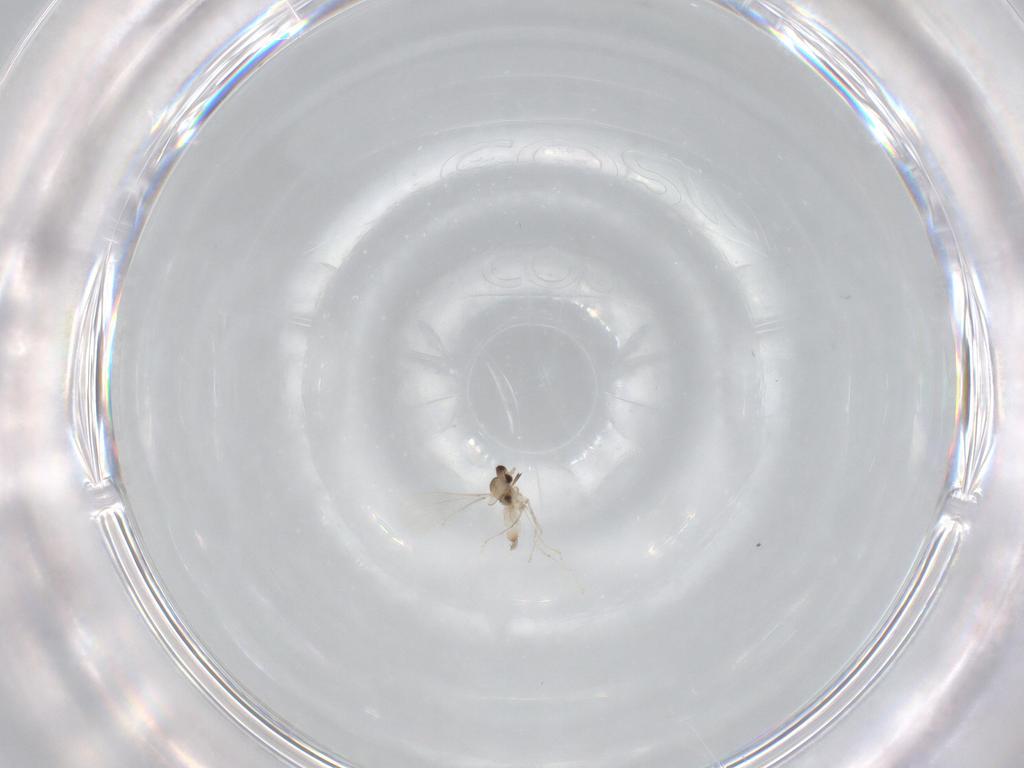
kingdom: Animalia
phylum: Arthropoda
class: Insecta
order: Diptera
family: Cecidomyiidae
